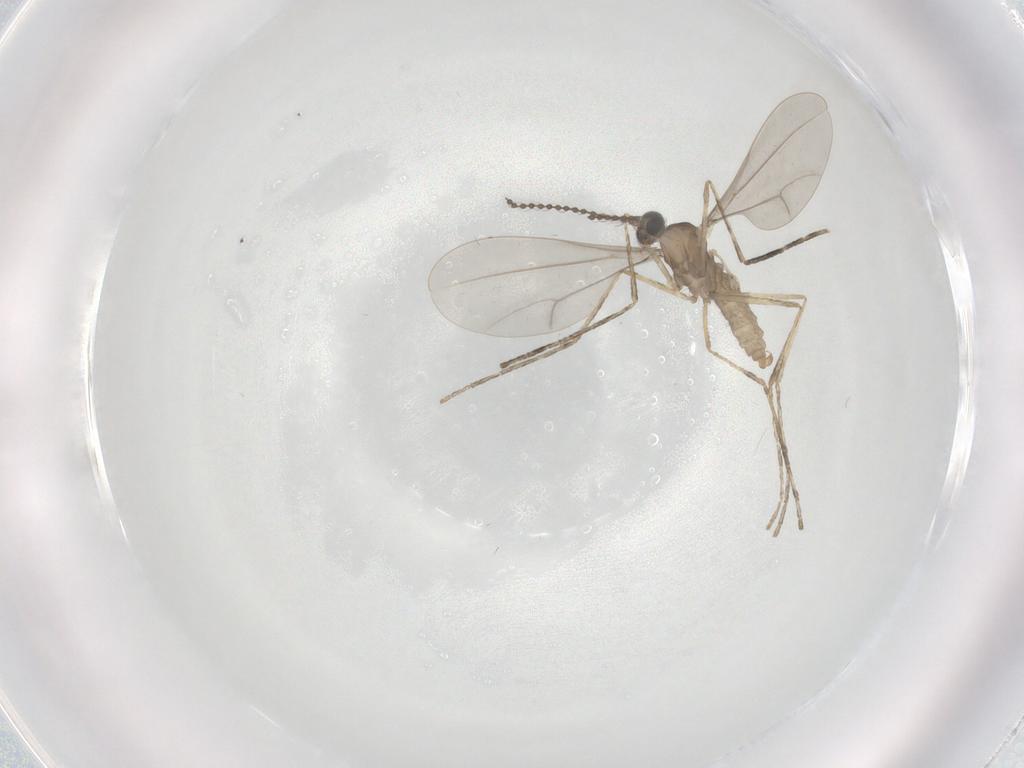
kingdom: Animalia
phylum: Arthropoda
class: Insecta
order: Diptera
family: Cecidomyiidae
